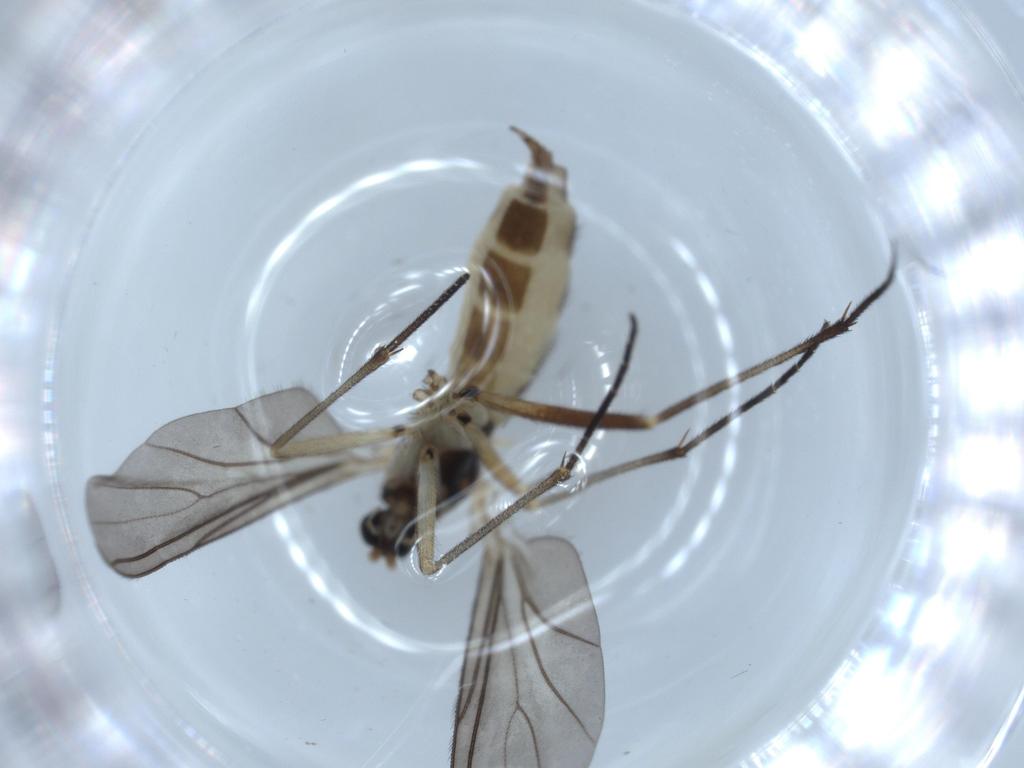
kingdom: Animalia
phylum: Arthropoda
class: Insecta
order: Diptera
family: Sciaridae
